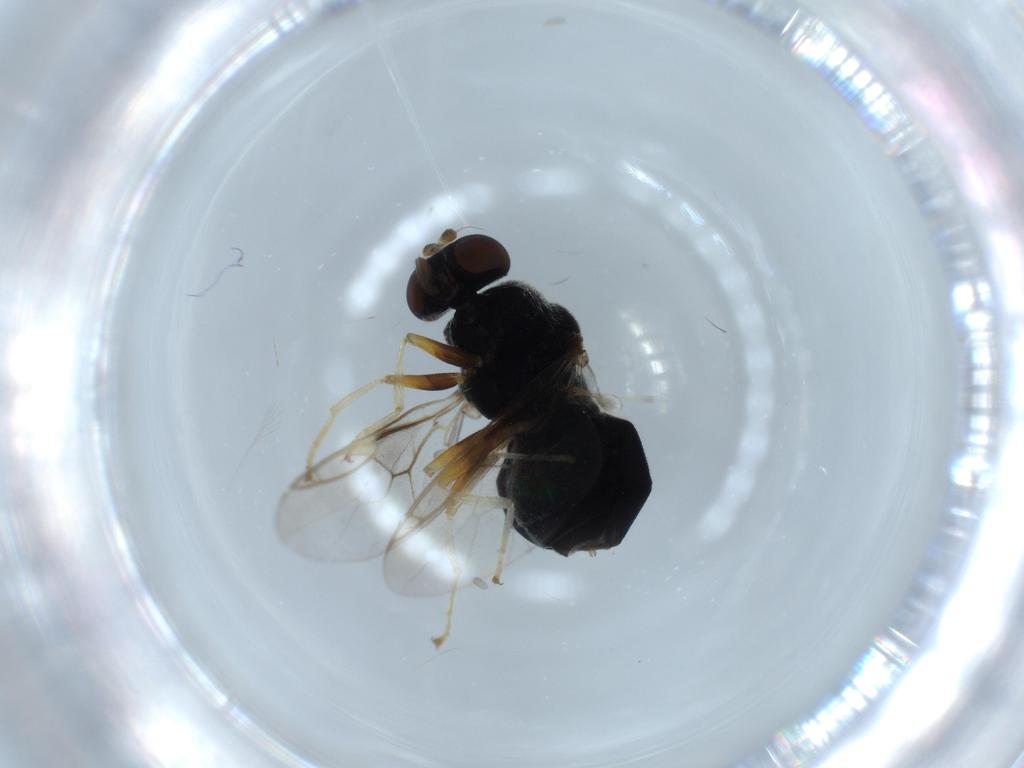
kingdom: Animalia
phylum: Arthropoda
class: Insecta
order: Diptera
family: Stratiomyidae
